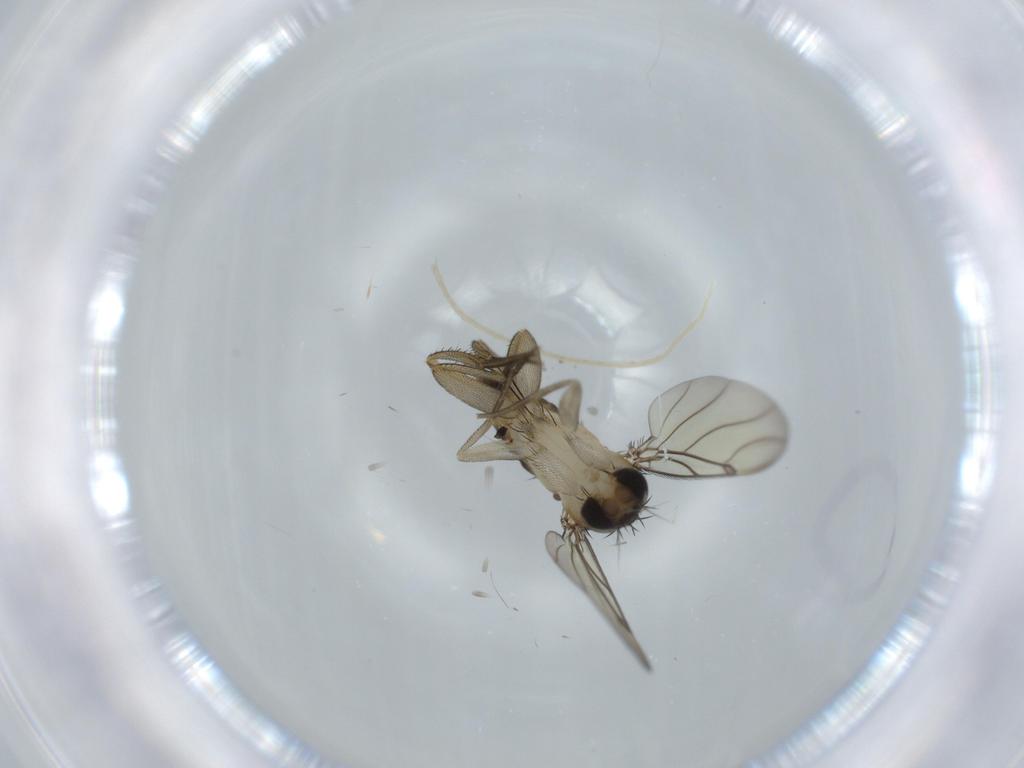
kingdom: Animalia
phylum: Arthropoda
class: Insecta
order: Diptera
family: Cecidomyiidae
